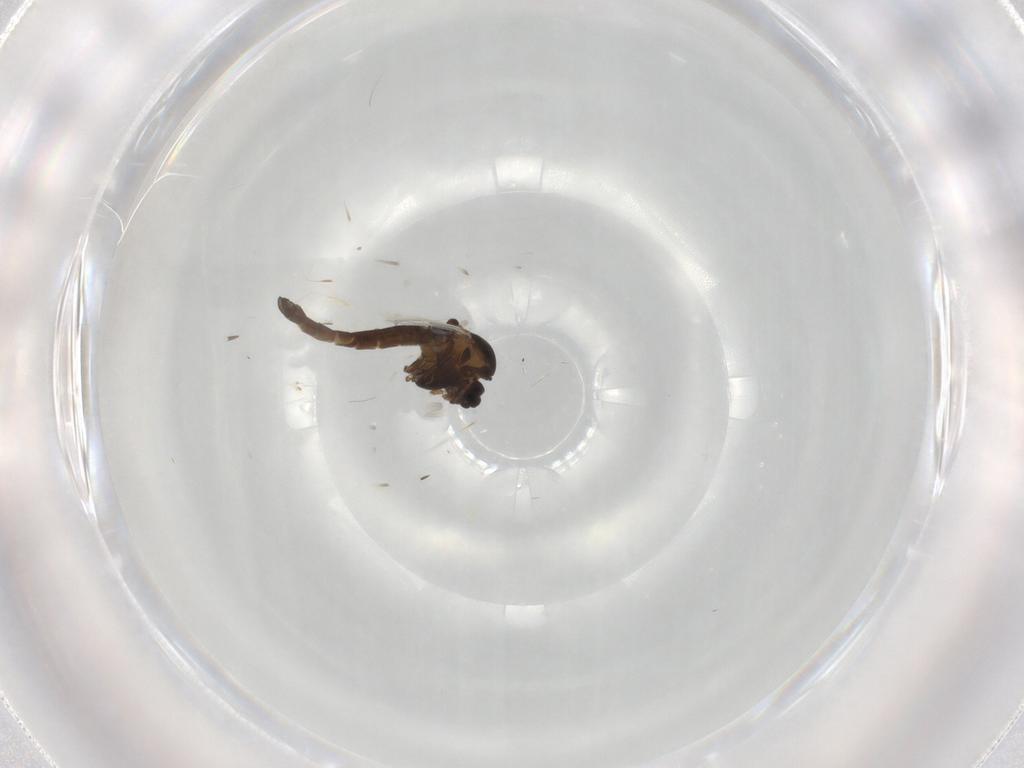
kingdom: Animalia
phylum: Arthropoda
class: Insecta
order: Diptera
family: Chironomidae
